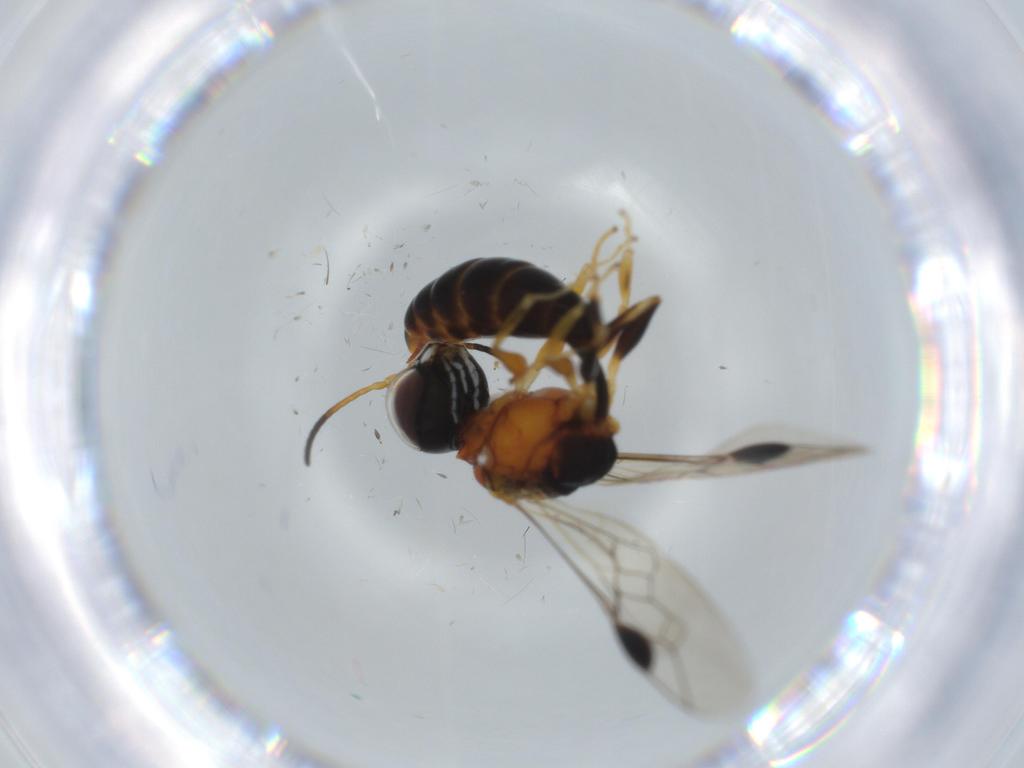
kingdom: Animalia
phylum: Arthropoda
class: Insecta
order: Hymenoptera
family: Pemphredonidae
